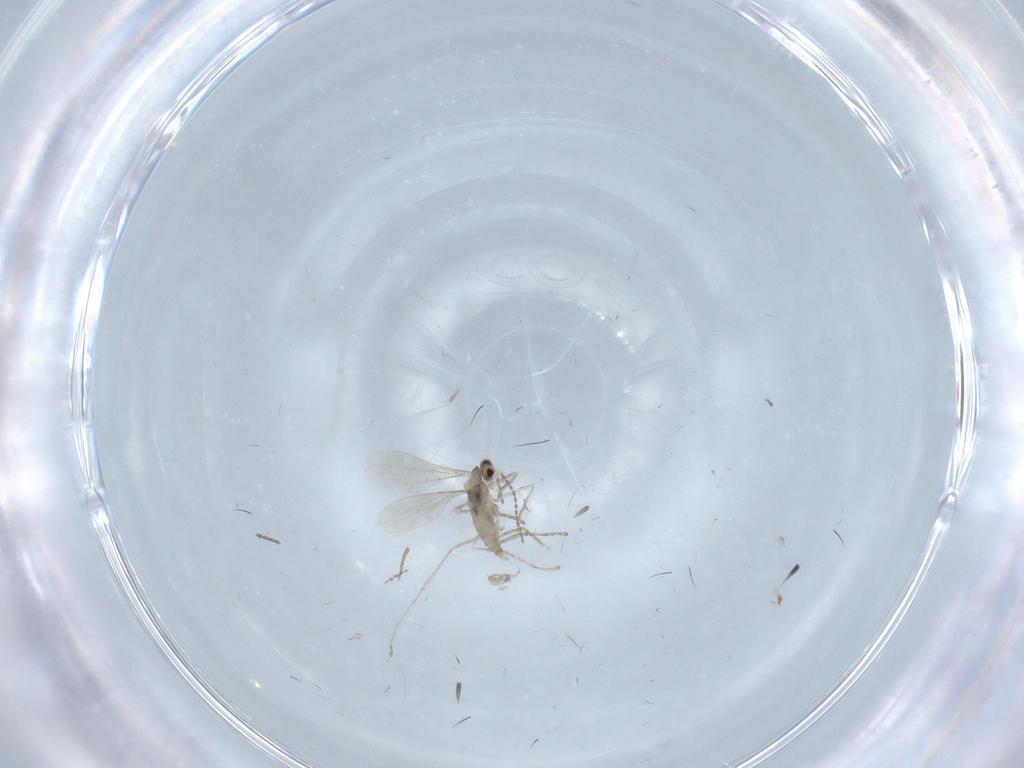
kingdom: Animalia
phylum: Arthropoda
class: Insecta
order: Diptera
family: Cecidomyiidae
